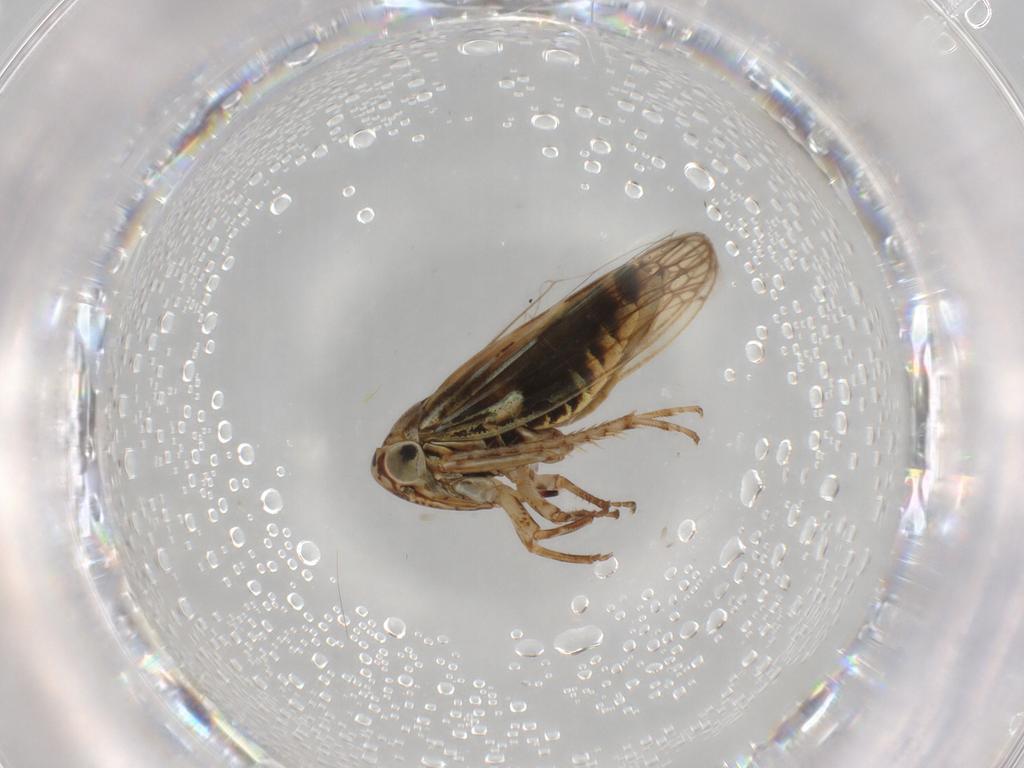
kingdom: Animalia
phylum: Arthropoda
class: Insecta
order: Hemiptera
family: Cicadellidae
